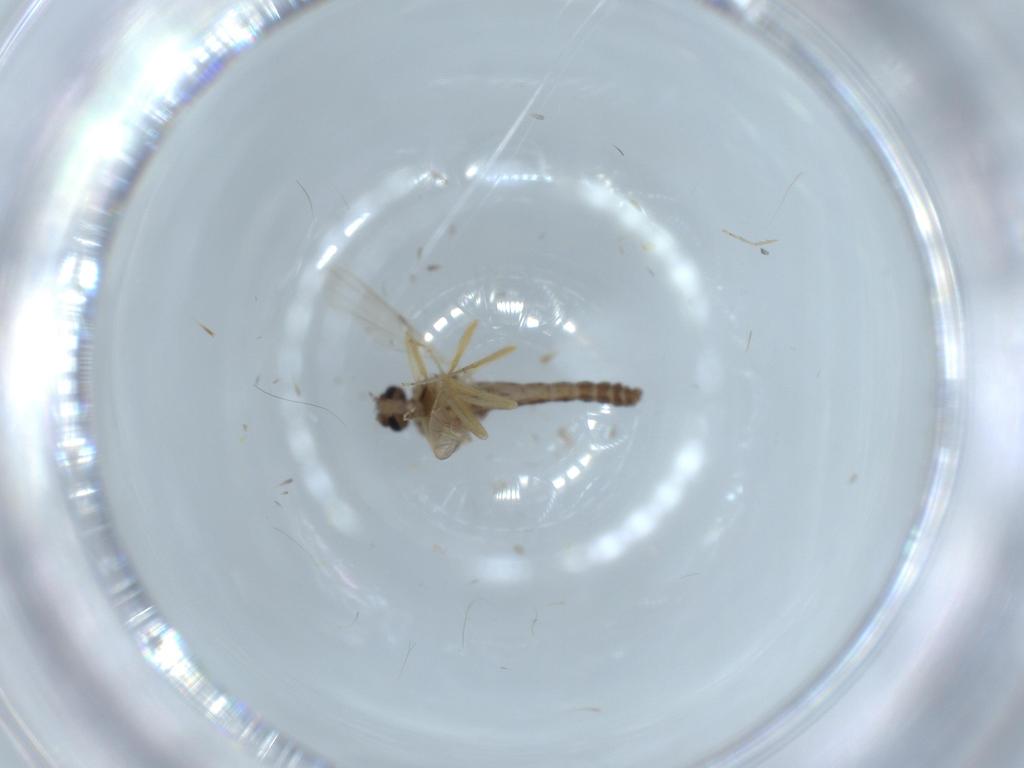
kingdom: Animalia
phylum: Arthropoda
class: Insecta
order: Diptera
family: Ceratopogonidae
